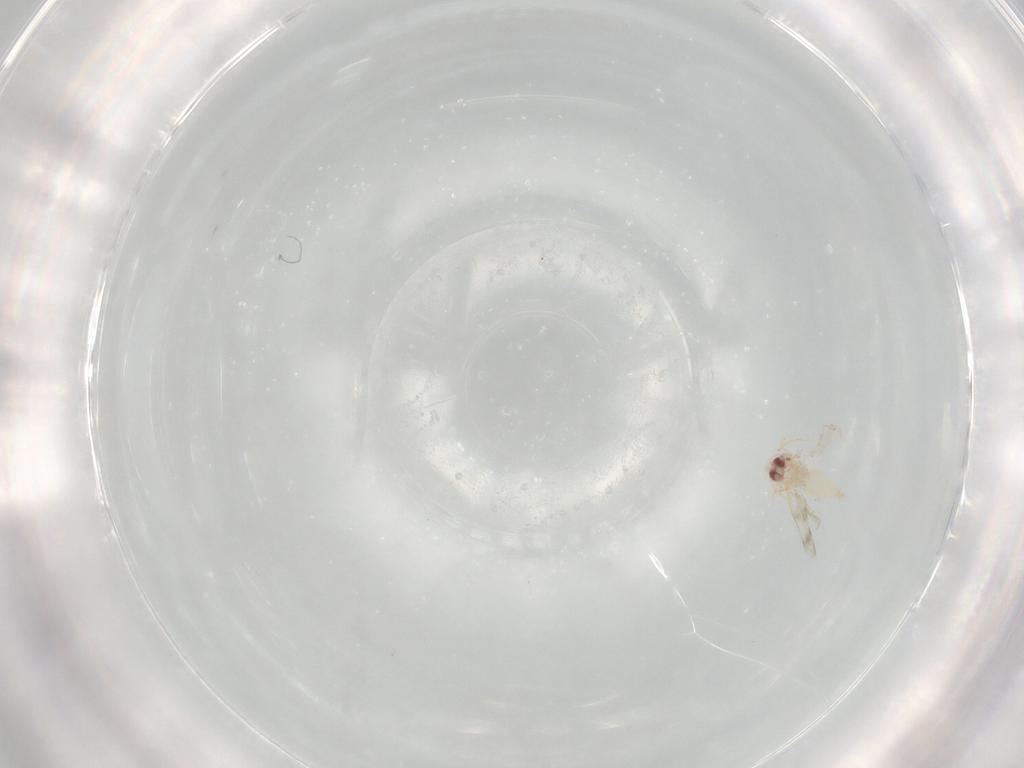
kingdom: Animalia
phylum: Arthropoda
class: Insecta
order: Hemiptera
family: Aleyrodidae
